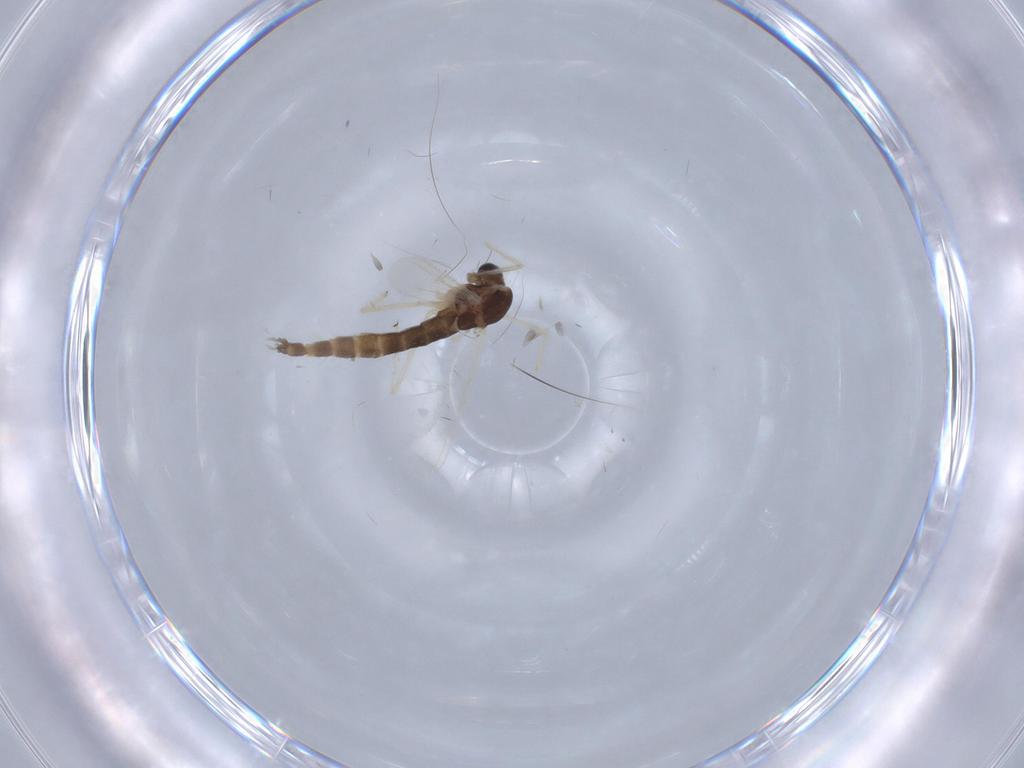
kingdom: Animalia
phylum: Arthropoda
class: Insecta
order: Diptera
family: Chironomidae
